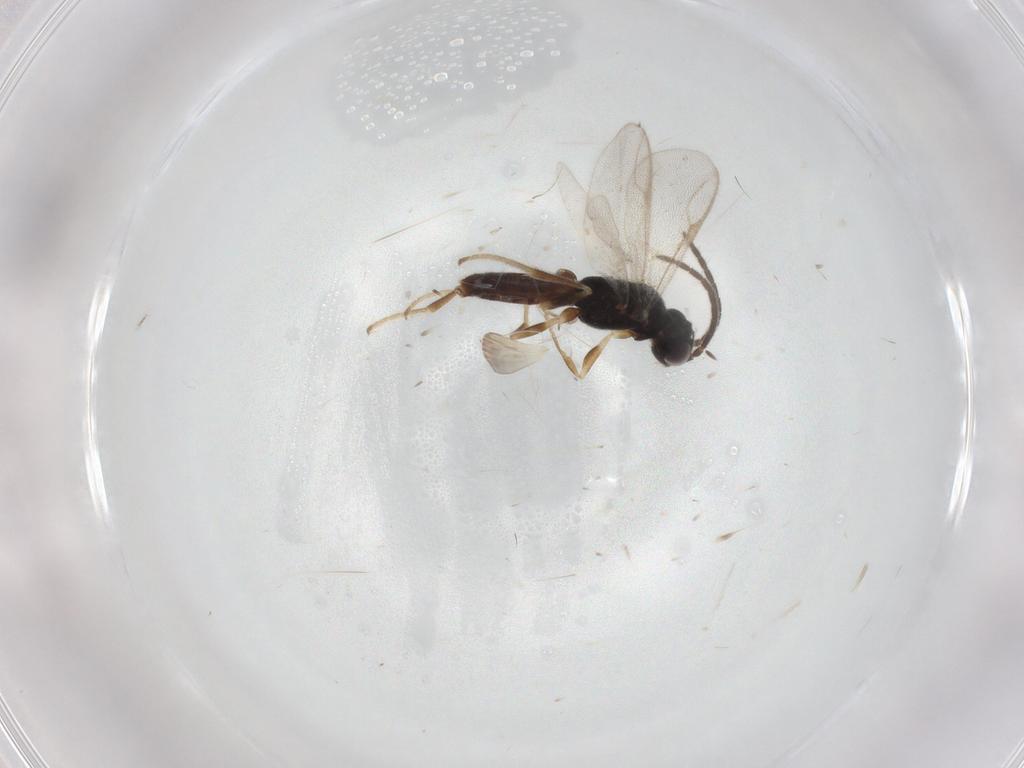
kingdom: Animalia
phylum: Arthropoda
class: Insecta
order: Hymenoptera
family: Dryinidae
